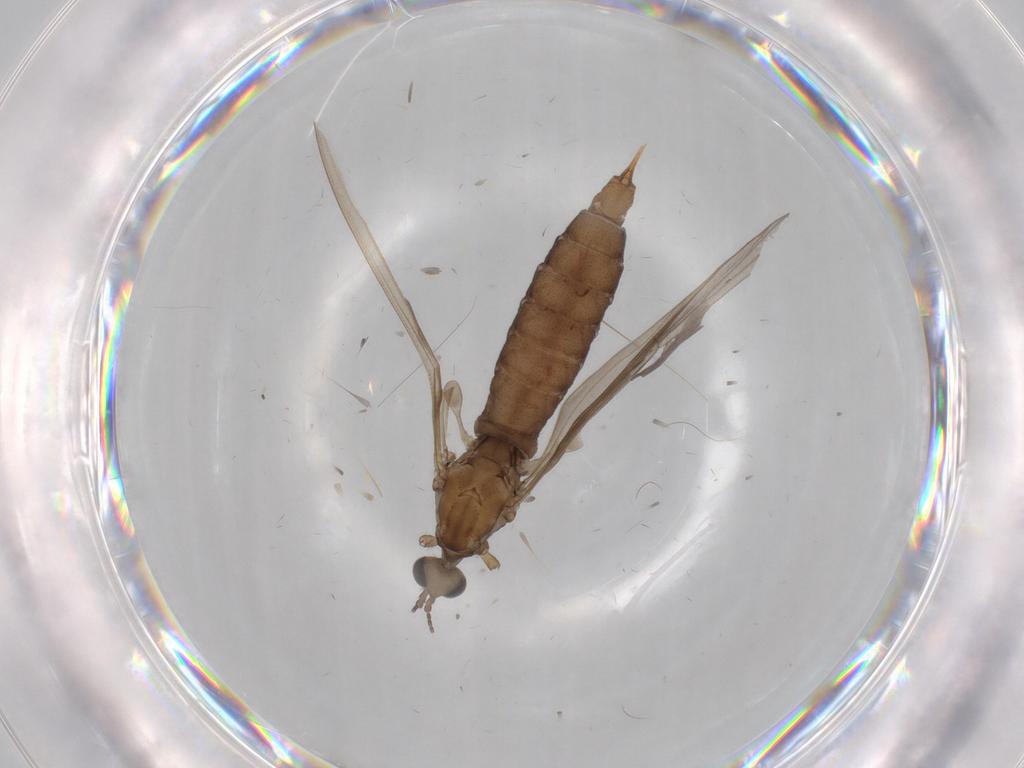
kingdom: Animalia
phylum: Arthropoda
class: Insecta
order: Diptera
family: Limoniidae
